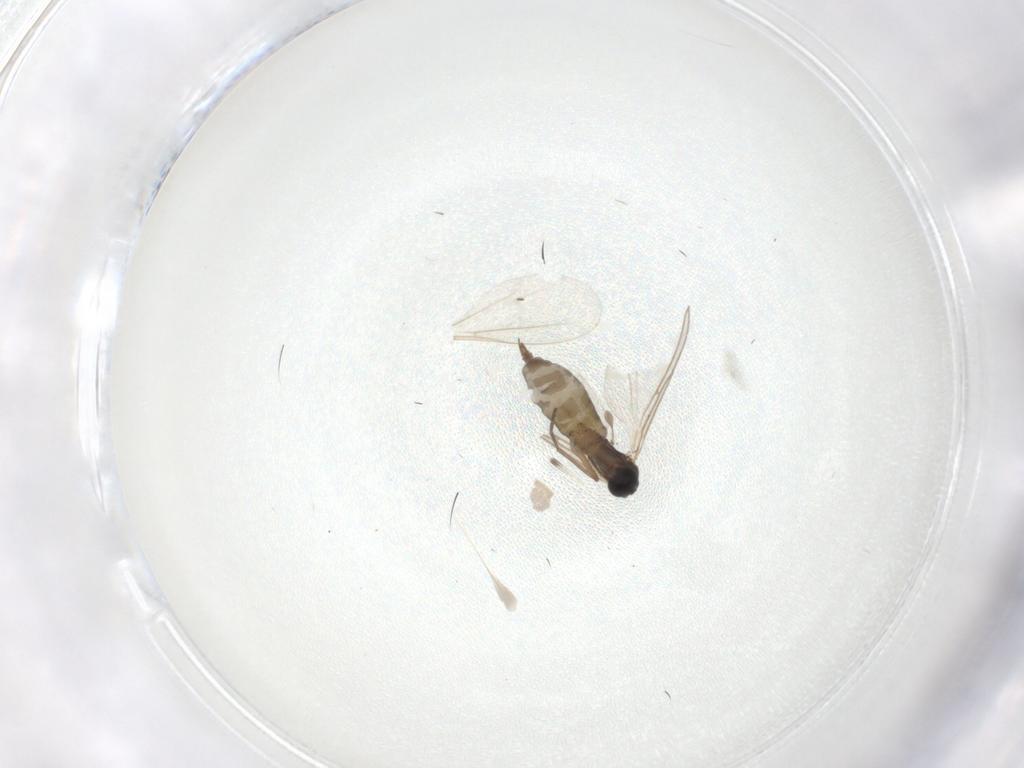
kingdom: Animalia
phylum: Arthropoda
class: Insecta
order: Diptera
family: Sciaridae
